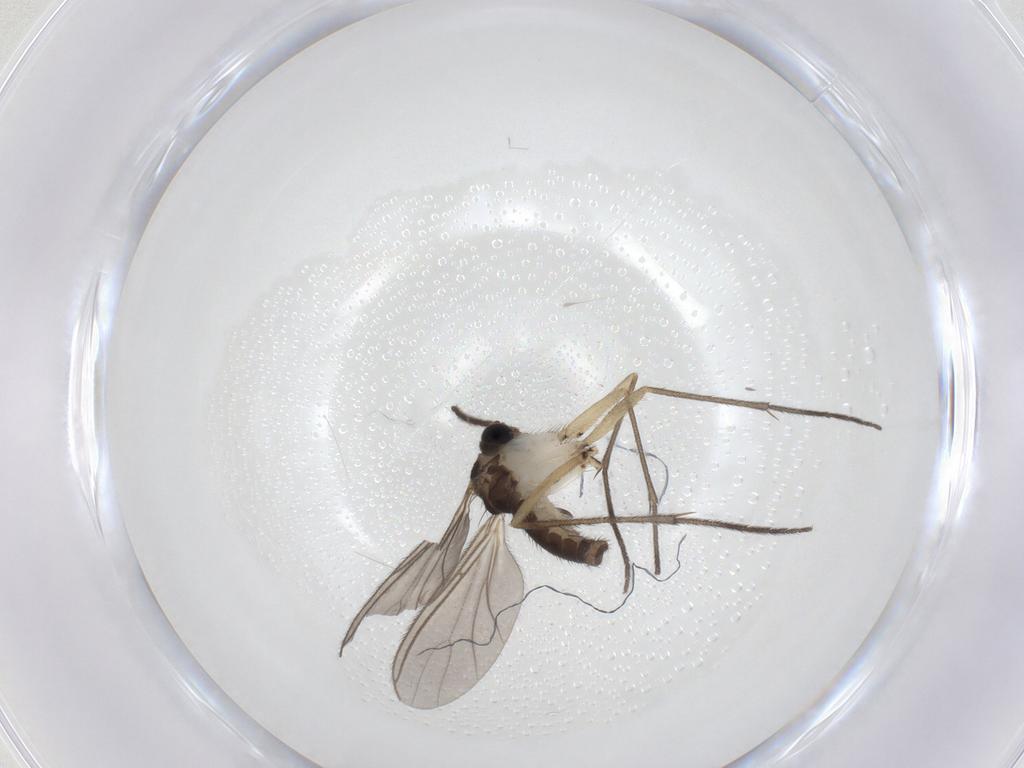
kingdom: Animalia
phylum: Arthropoda
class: Insecta
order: Diptera
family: Sciaridae
